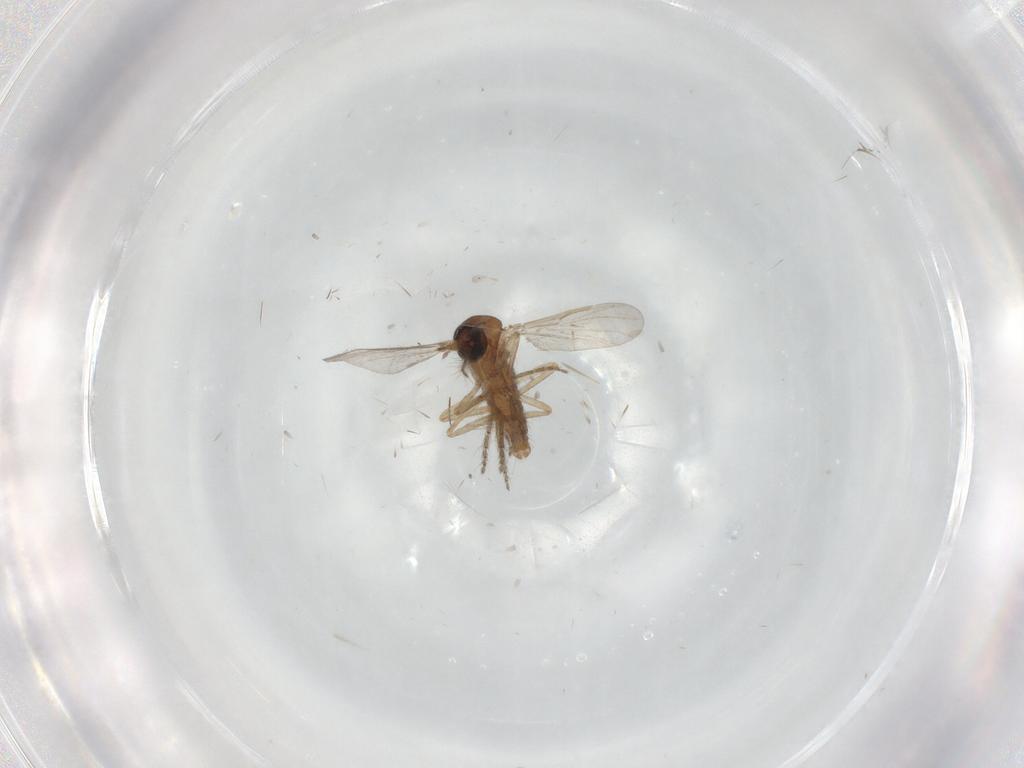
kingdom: Animalia
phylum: Arthropoda
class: Insecta
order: Diptera
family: Ceratopogonidae
